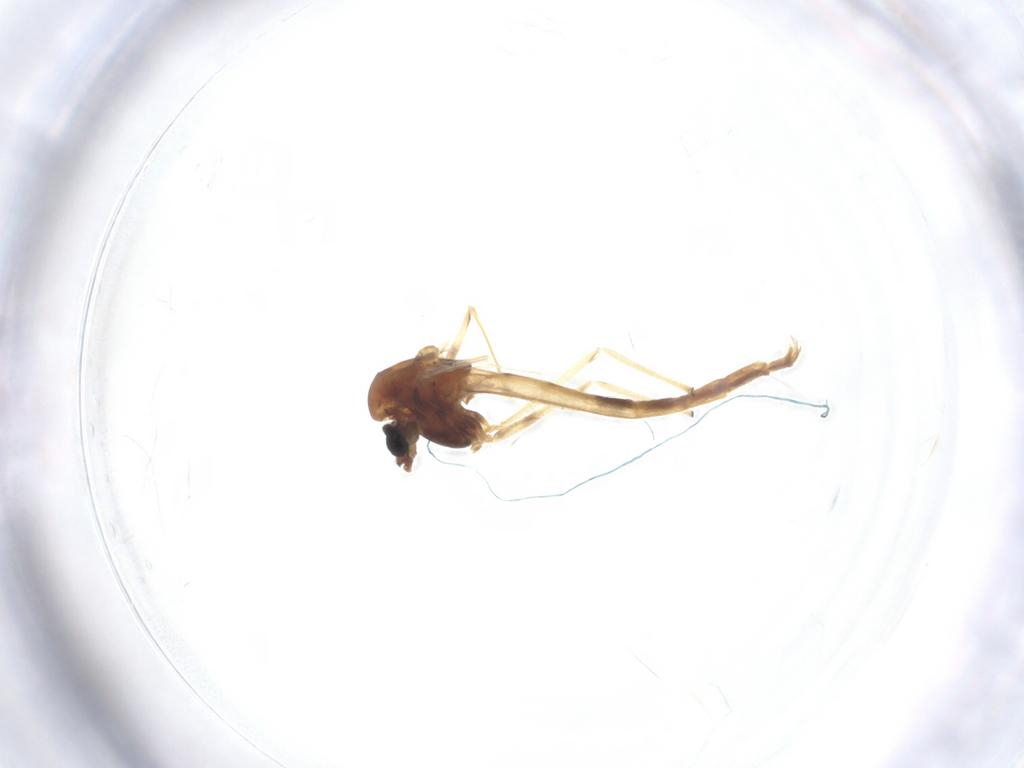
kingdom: Animalia
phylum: Arthropoda
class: Insecta
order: Diptera
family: Chironomidae
